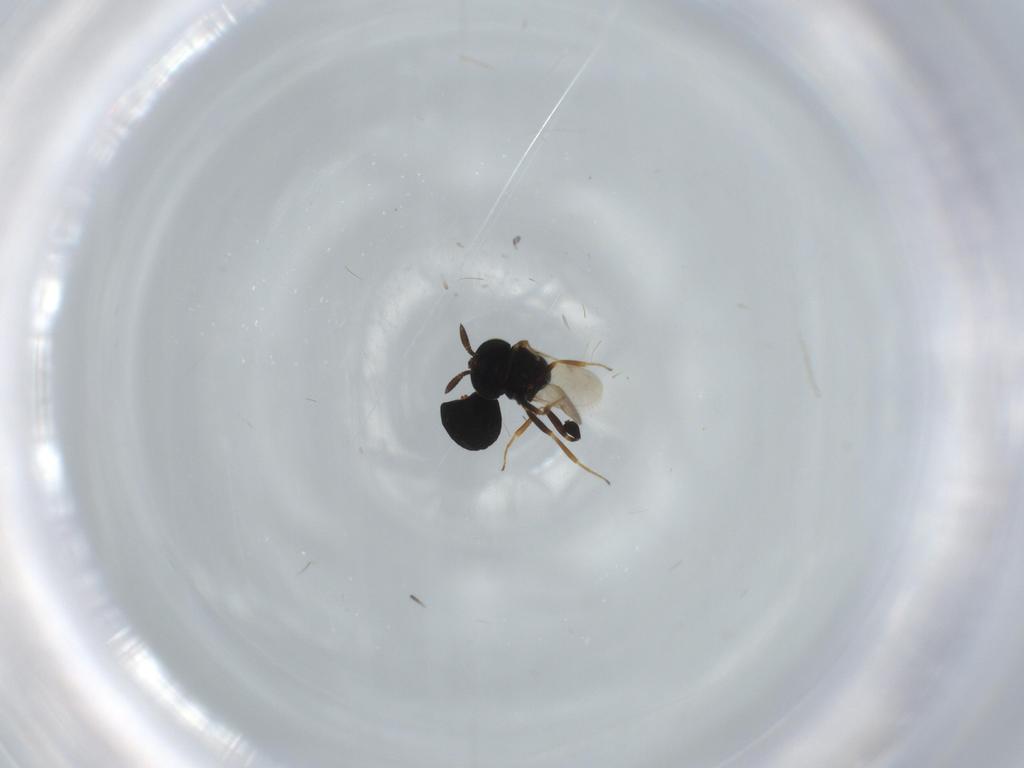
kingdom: Animalia
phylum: Arthropoda
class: Insecta
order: Hymenoptera
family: Scelionidae
